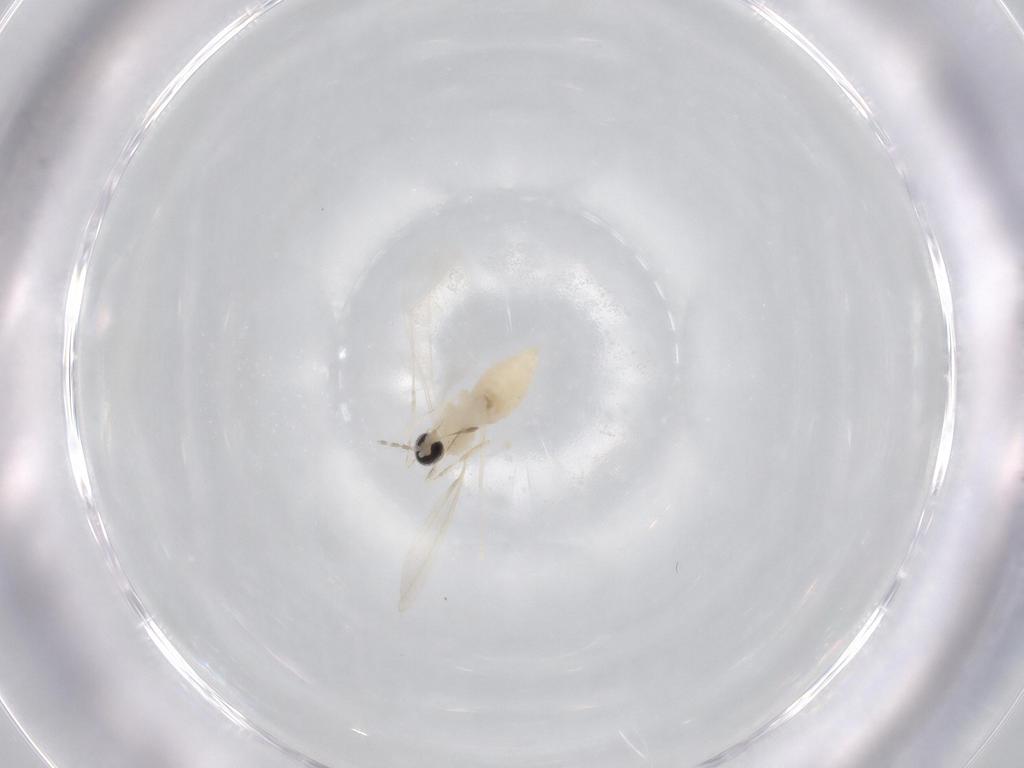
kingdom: Animalia
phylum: Arthropoda
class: Insecta
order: Diptera
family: Cecidomyiidae
